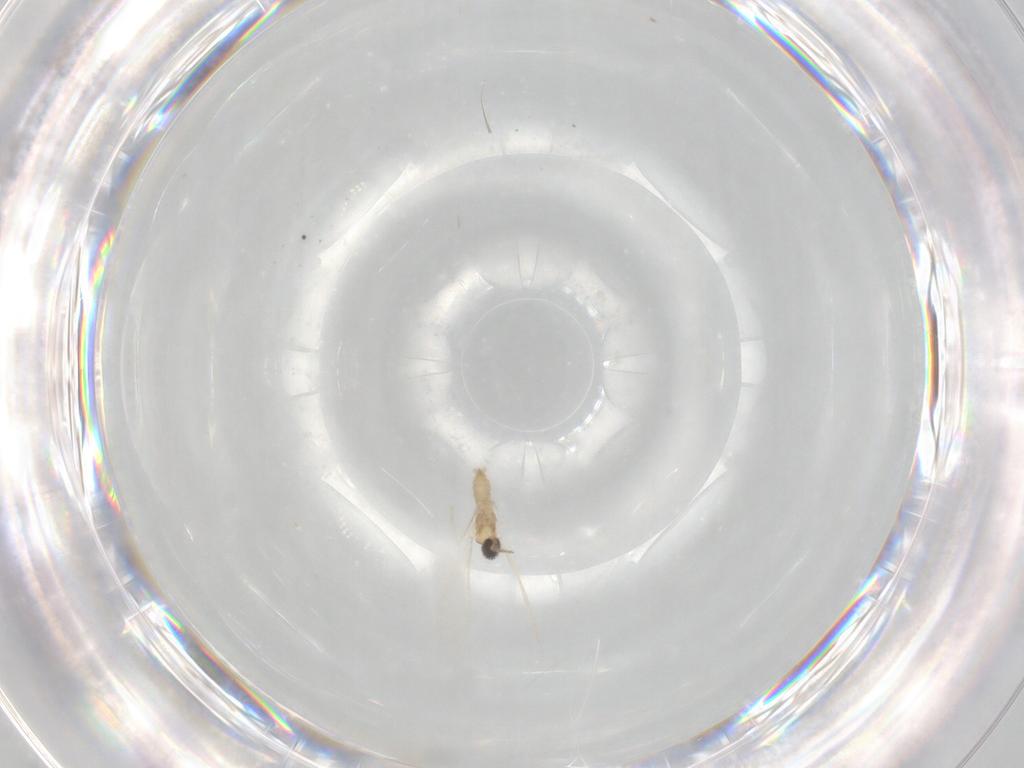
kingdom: Animalia
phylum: Arthropoda
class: Insecta
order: Diptera
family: Cecidomyiidae
